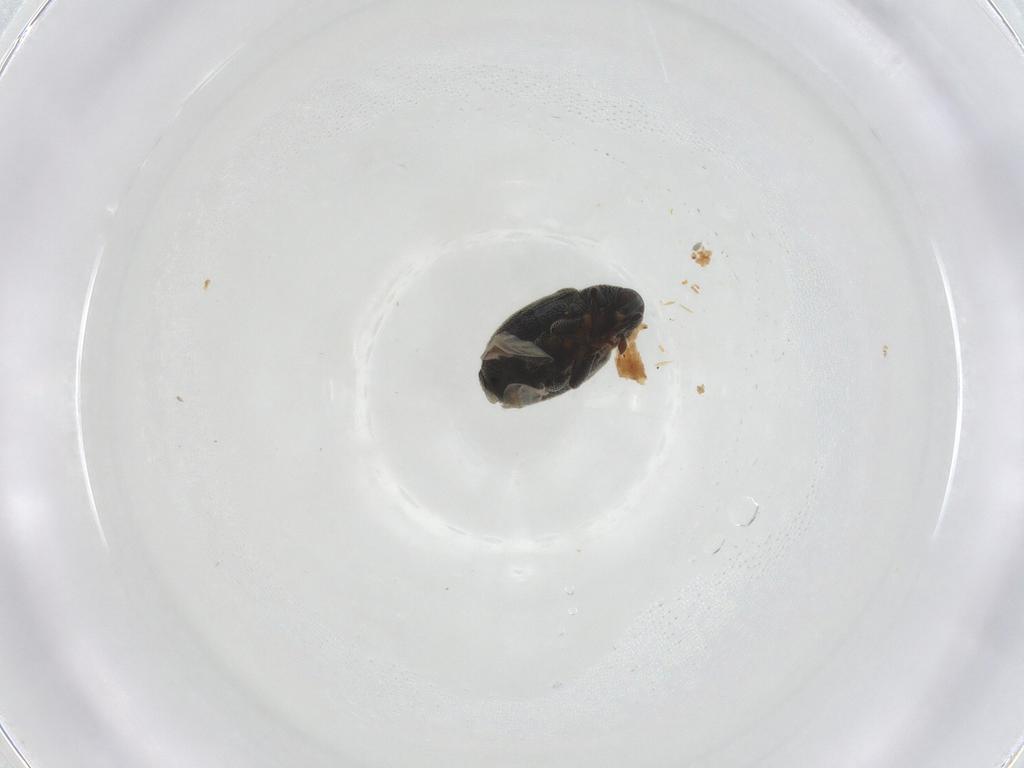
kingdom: Animalia
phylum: Arthropoda
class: Insecta
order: Coleoptera
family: Curculionidae
